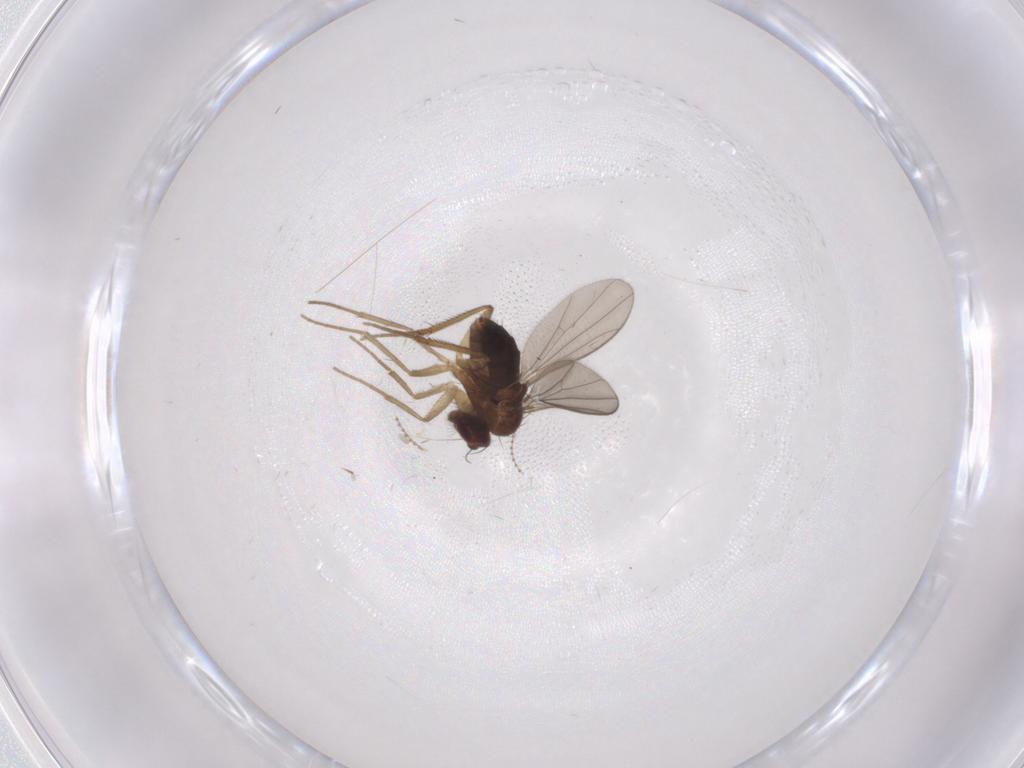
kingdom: Animalia
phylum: Arthropoda
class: Insecta
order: Diptera
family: Dolichopodidae
